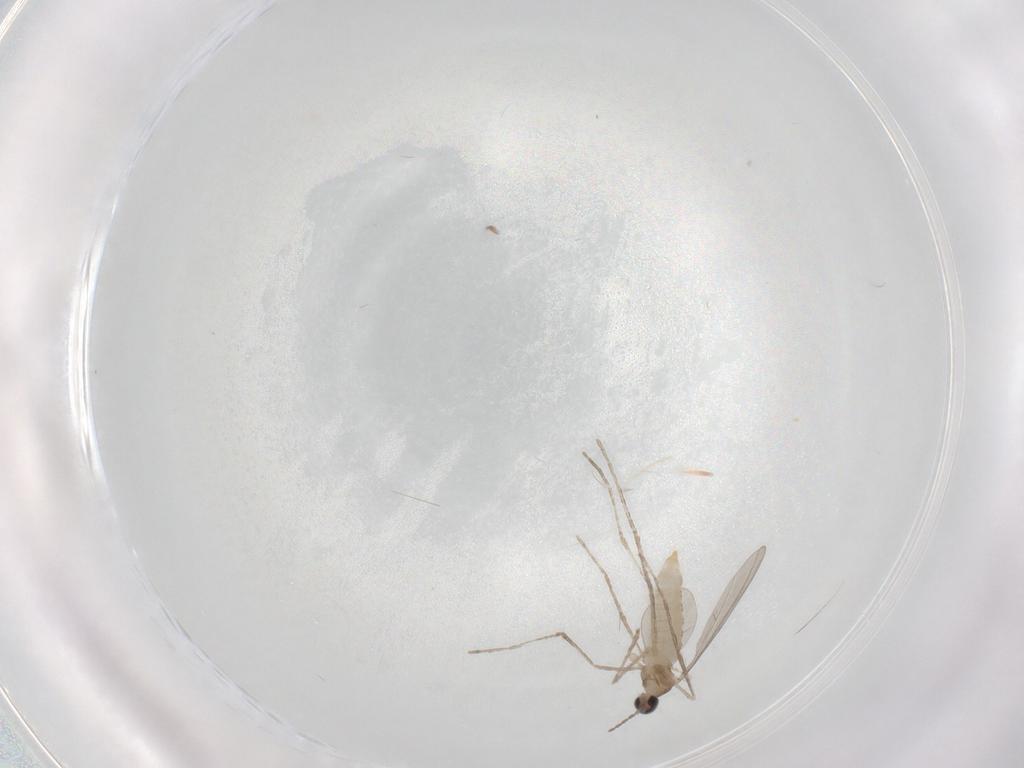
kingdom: Animalia
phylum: Arthropoda
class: Insecta
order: Diptera
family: Cecidomyiidae
